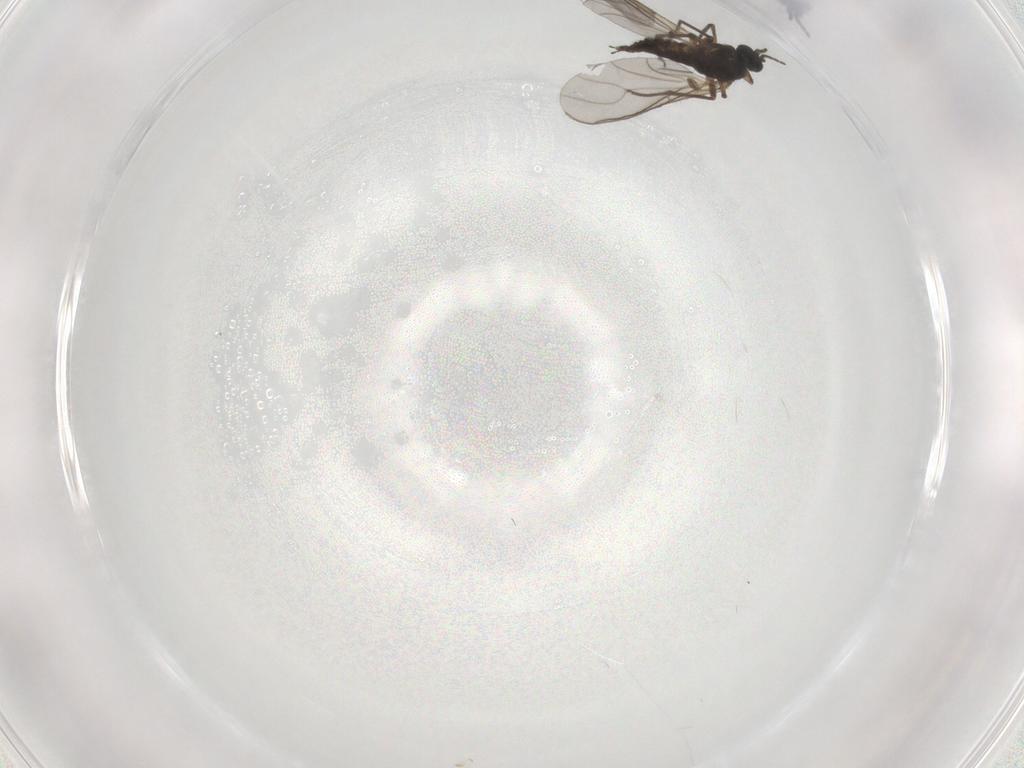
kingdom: Animalia
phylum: Arthropoda
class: Insecta
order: Diptera
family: Sciaridae
